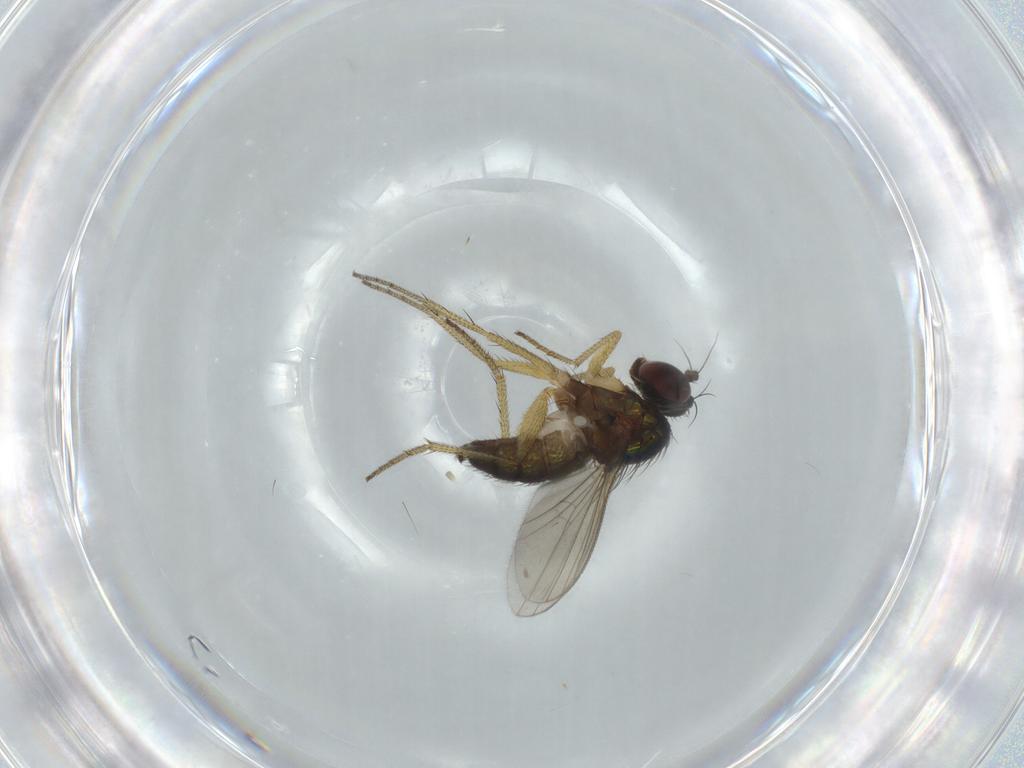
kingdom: Animalia
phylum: Arthropoda
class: Insecta
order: Diptera
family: Dolichopodidae
